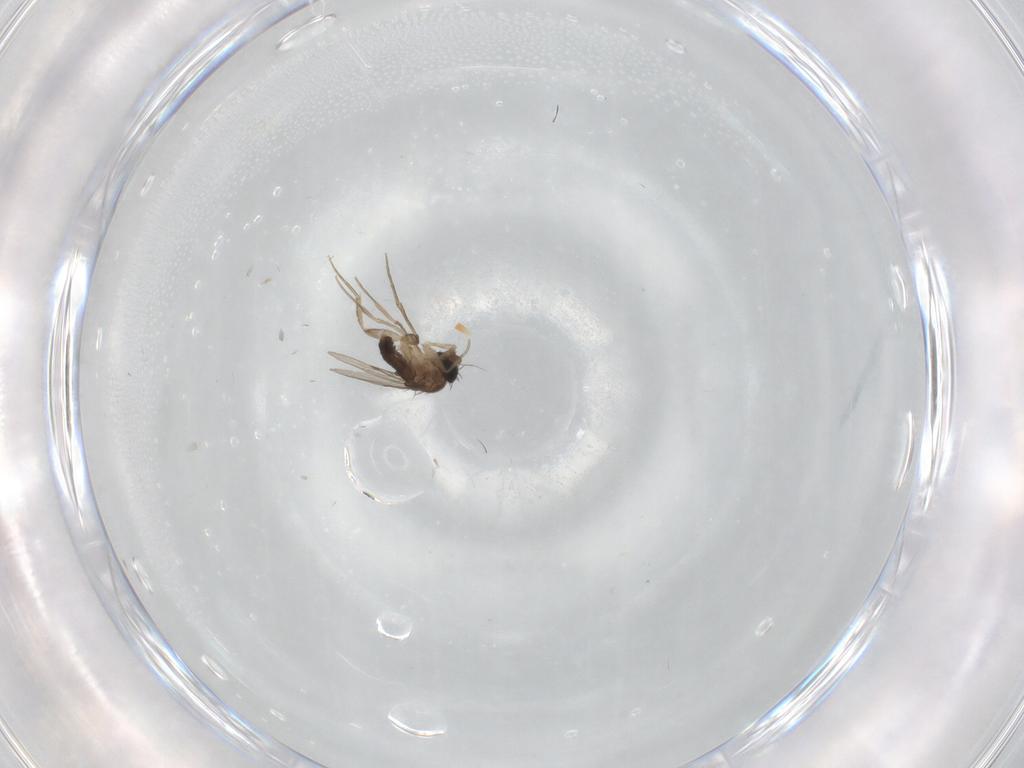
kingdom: Animalia
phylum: Arthropoda
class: Insecta
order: Diptera
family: Phoridae
